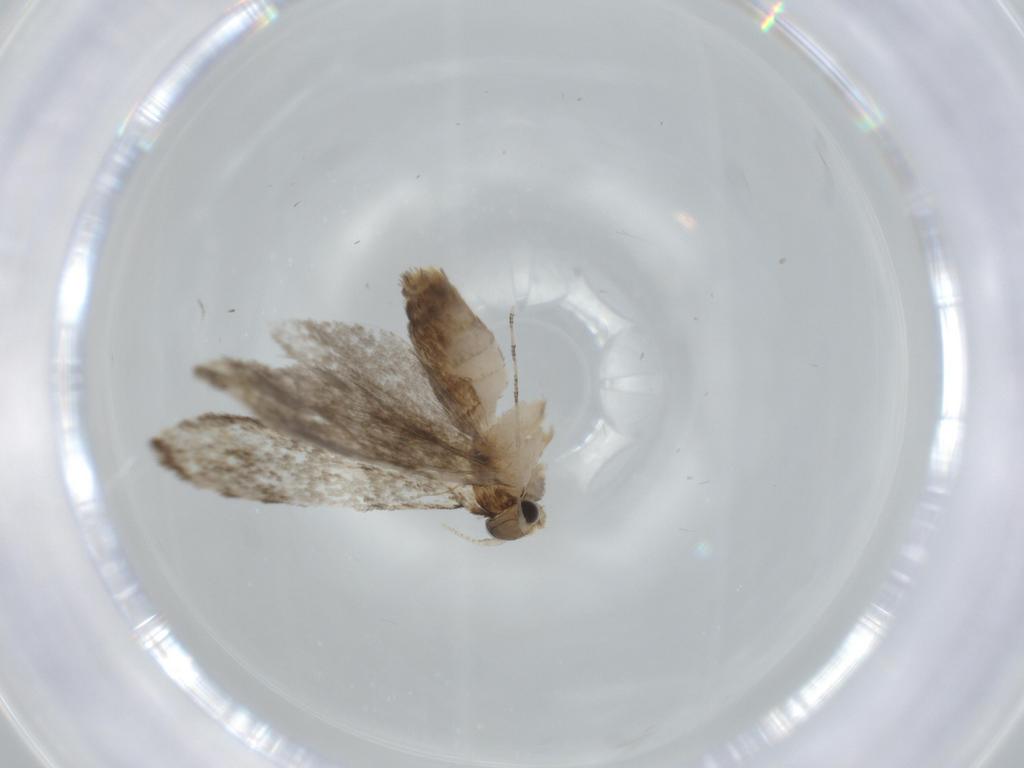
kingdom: Animalia
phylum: Arthropoda
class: Insecta
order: Lepidoptera
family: Tineidae
